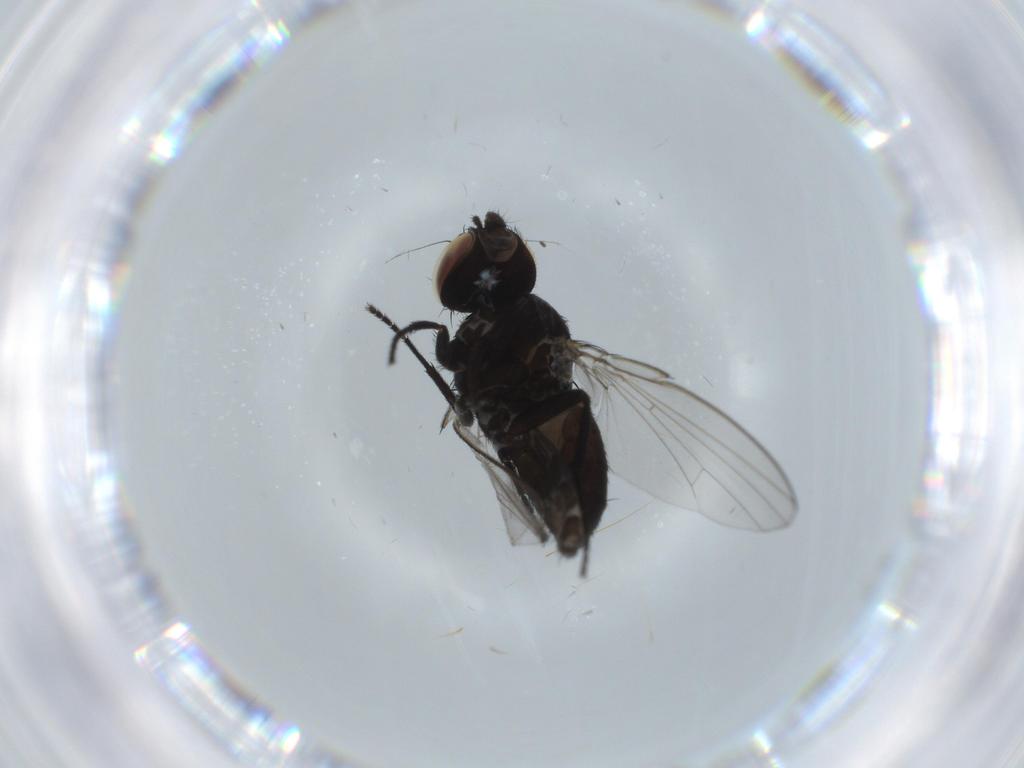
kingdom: Animalia
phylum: Arthropoda
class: Insecta
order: Diptera
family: Milichiidae
